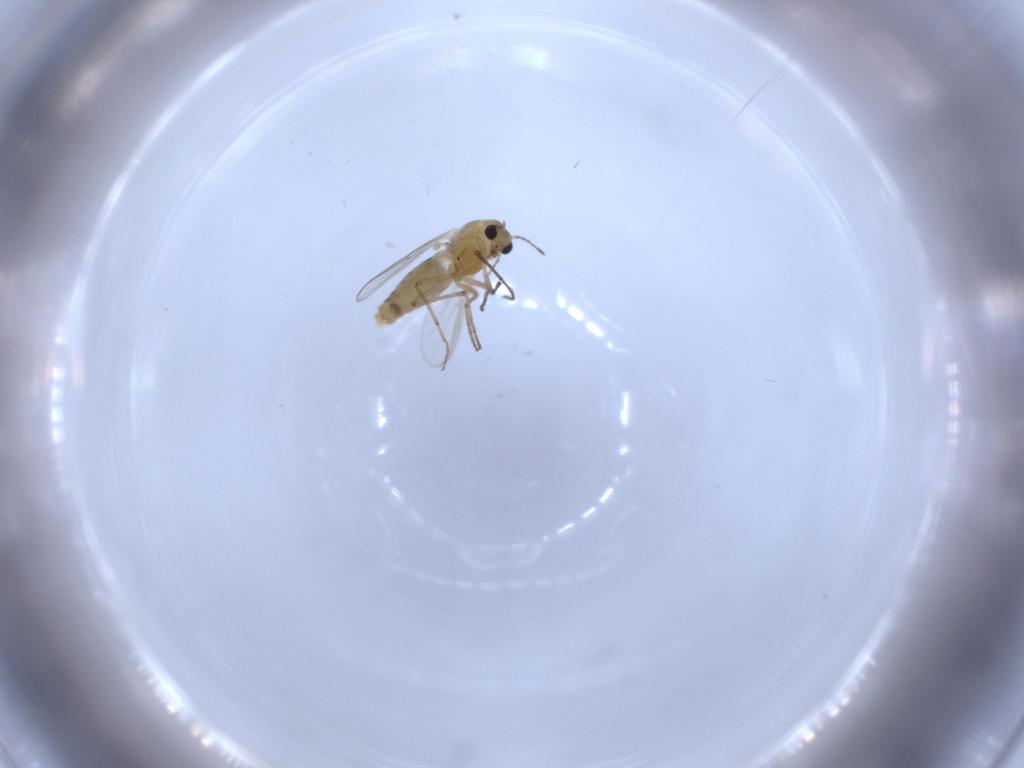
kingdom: Animalia
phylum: Arthropoda
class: Insecta
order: Diptera
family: Chironomidae
